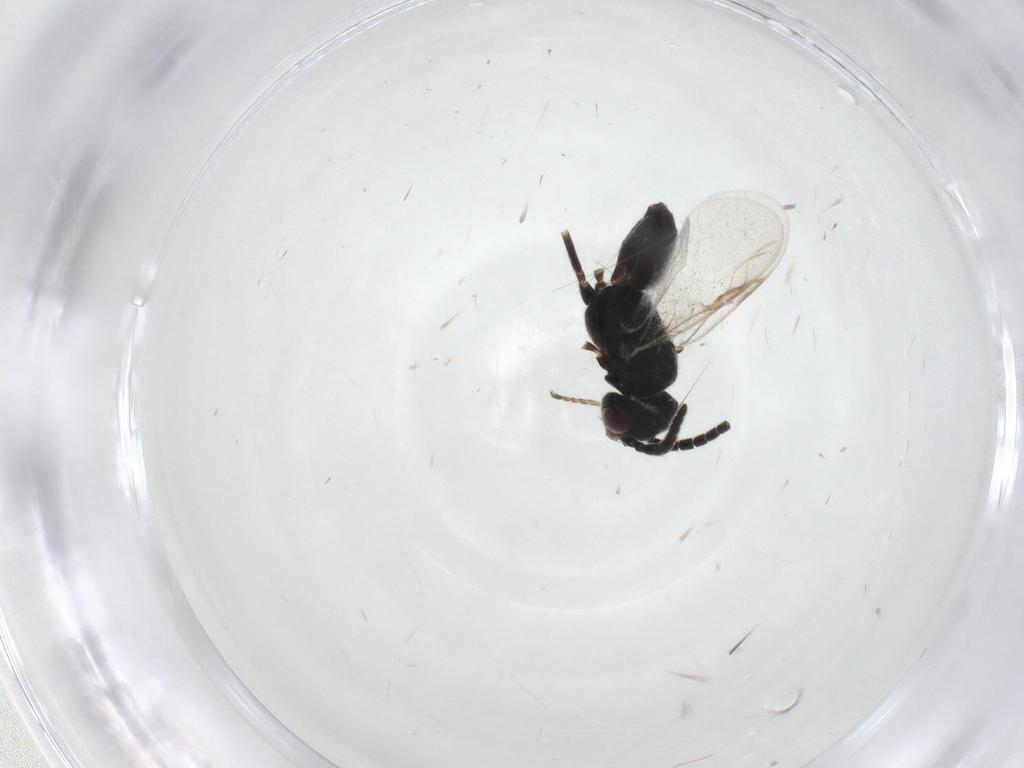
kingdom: Animalia
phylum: Arthropoda
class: Insecta
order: Hymenoptera
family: Dryinidae
